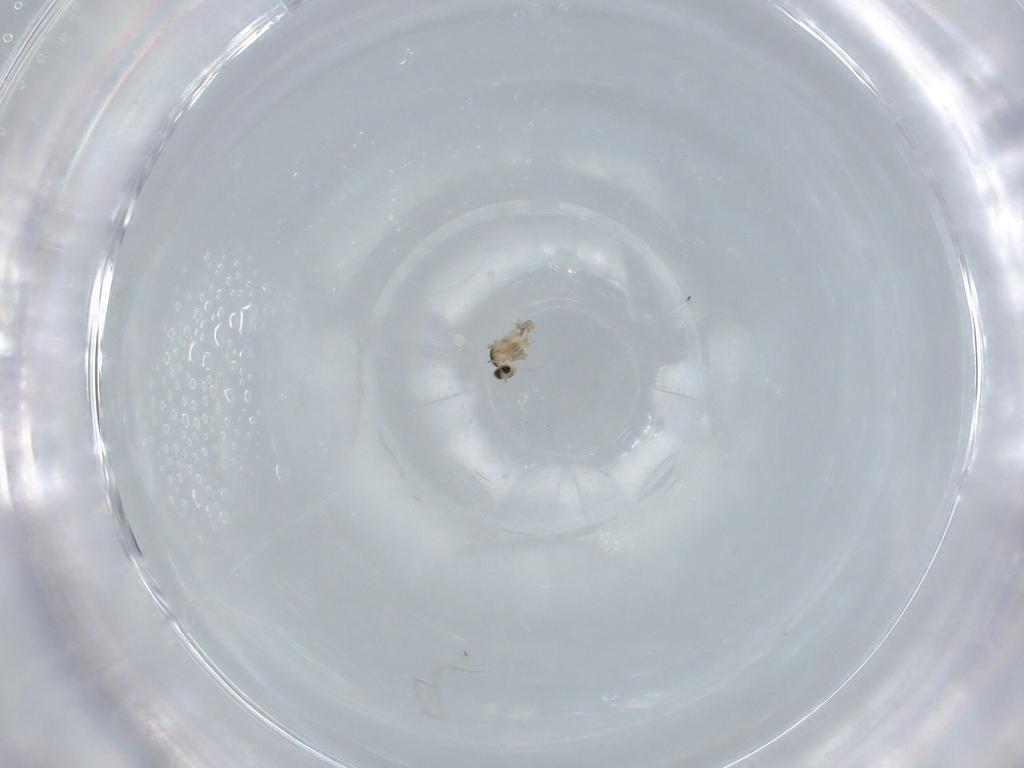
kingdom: Animalia
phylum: Arthropoda
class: Insecta
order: Diptera
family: Cecidomyiidae
